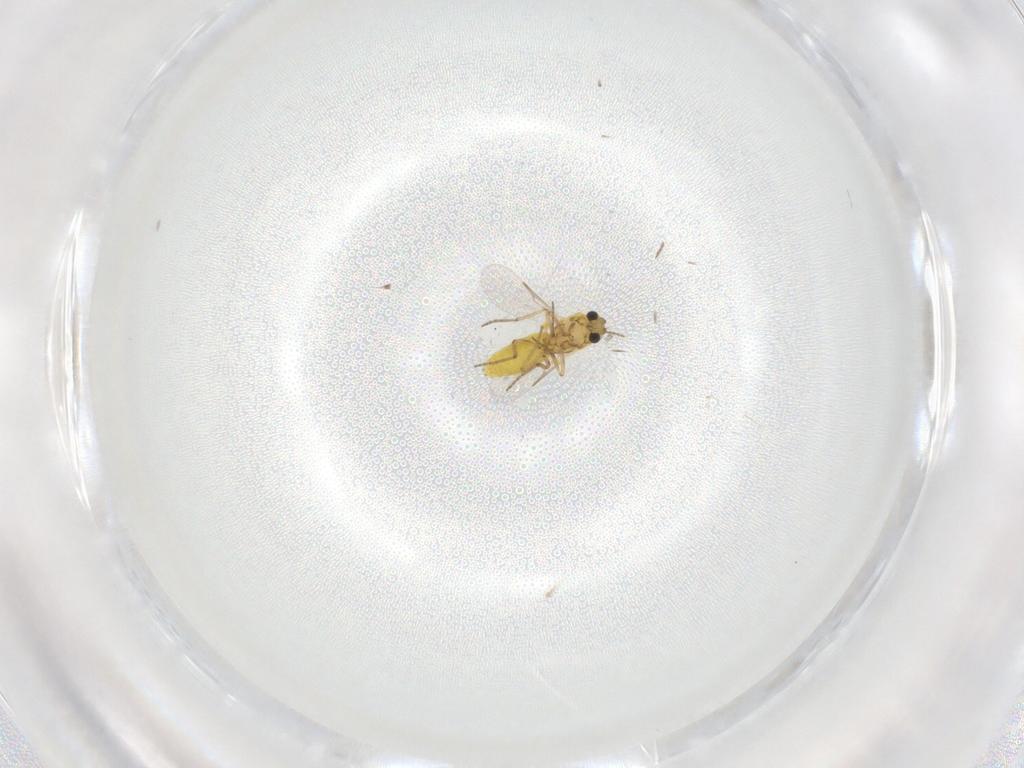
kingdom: Animalia
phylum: Arthropoda
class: Insecta
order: Diptera
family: Ceratopogonidae
